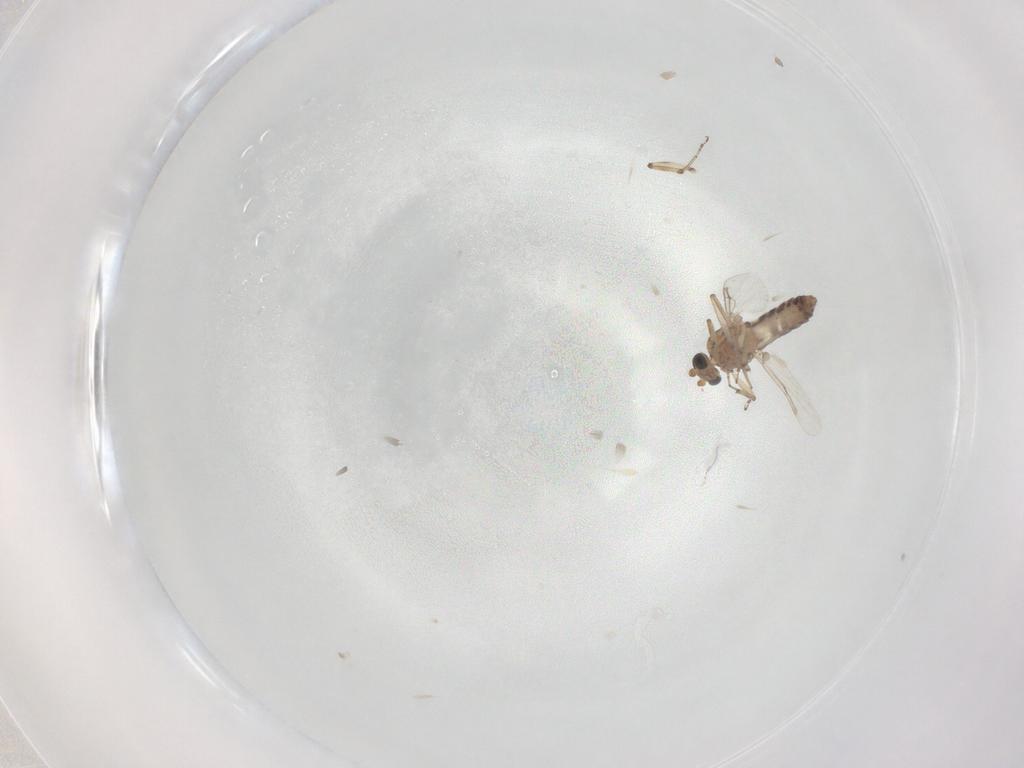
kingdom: Animalia
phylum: Arthropoda
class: Insecta
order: Diptera
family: Ceratopogonidae
